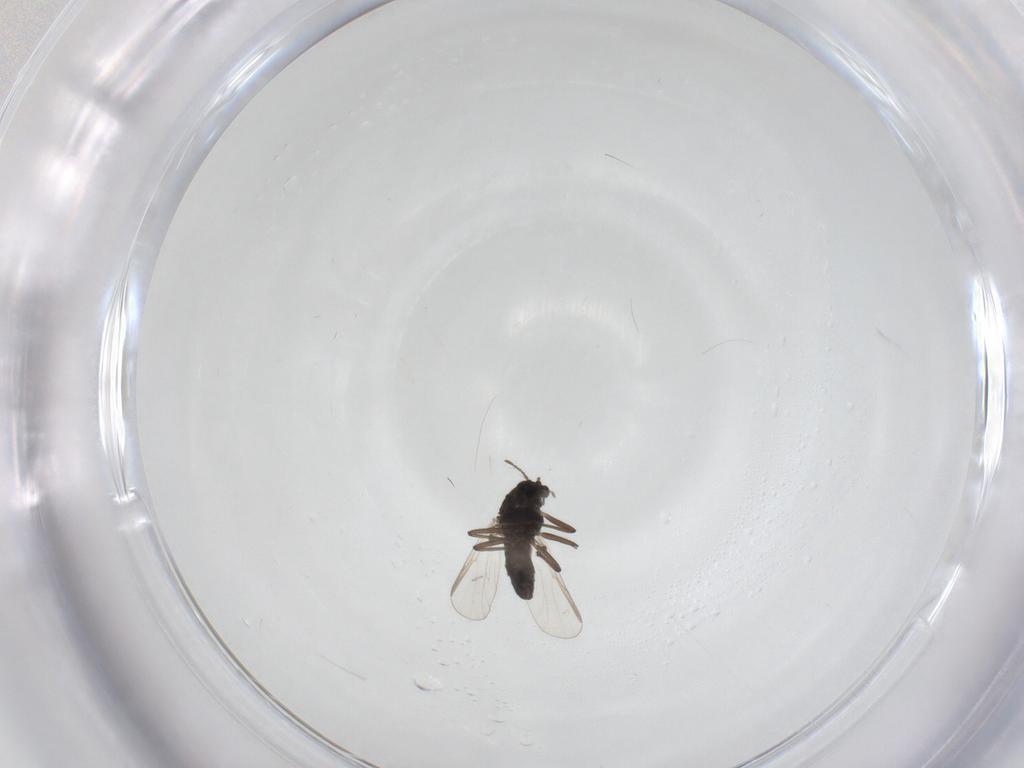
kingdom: Animalia
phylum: Arthropoda
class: Insecta
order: Diptera
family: Chironomidae
